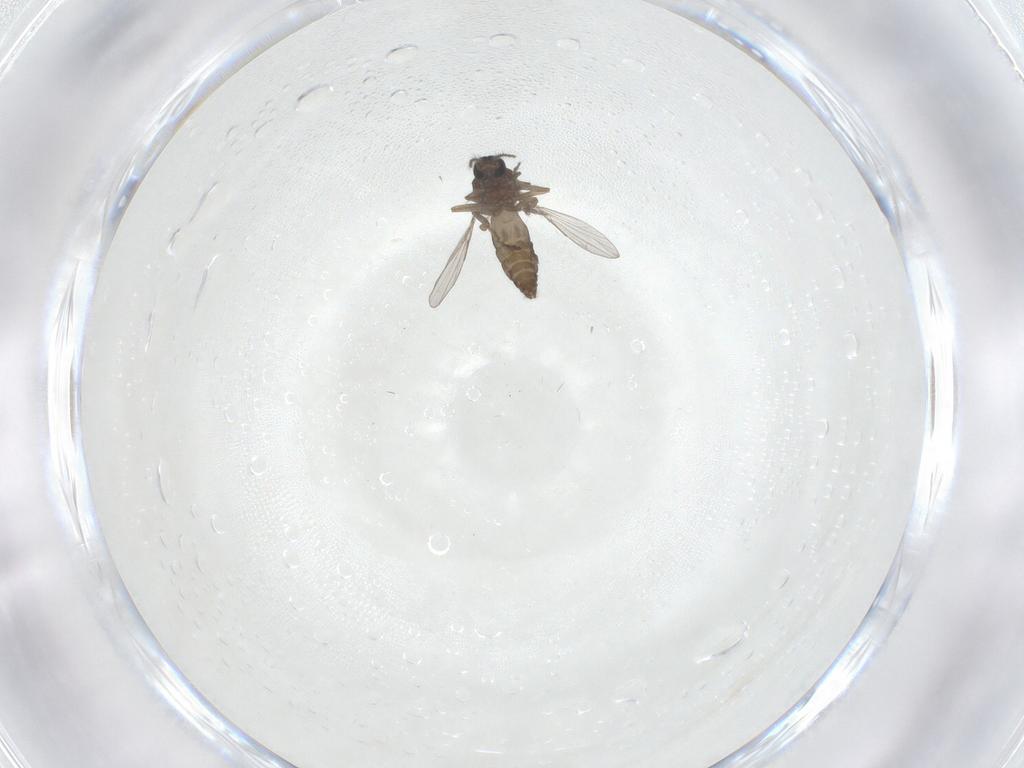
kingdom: Animalia
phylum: Arthropoda
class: Insecta
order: Diptera
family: Ceratopogonidae
